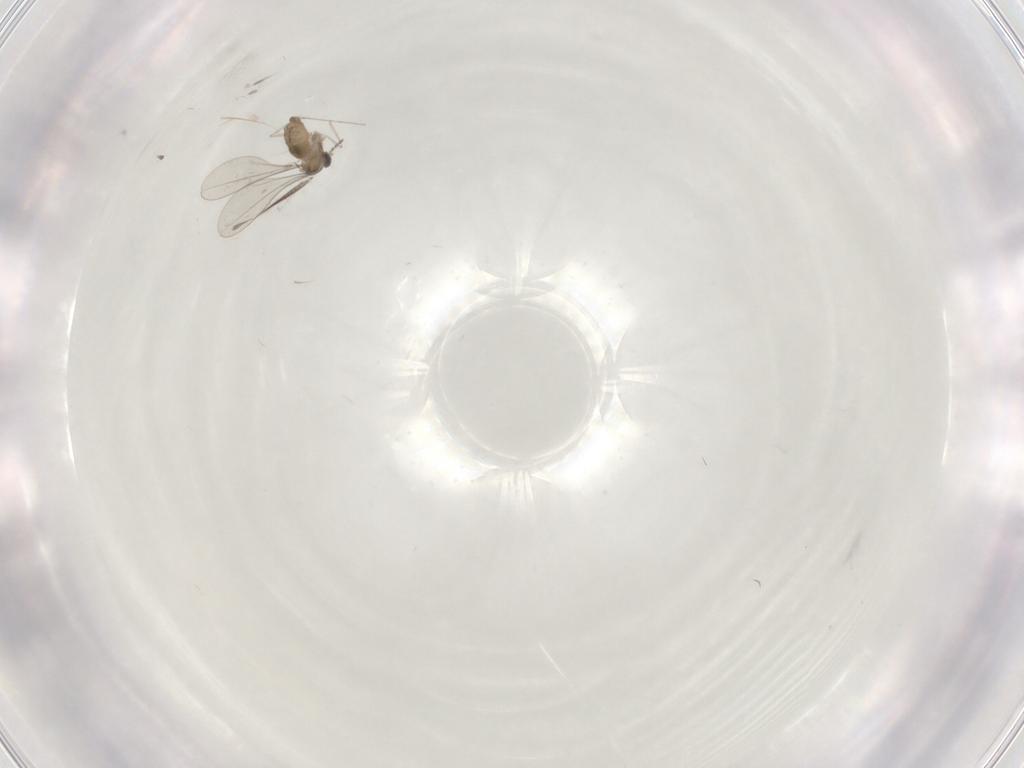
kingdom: Animalia
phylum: Arthropoda
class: Insecta
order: Diptera
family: Cecidomyiidae
